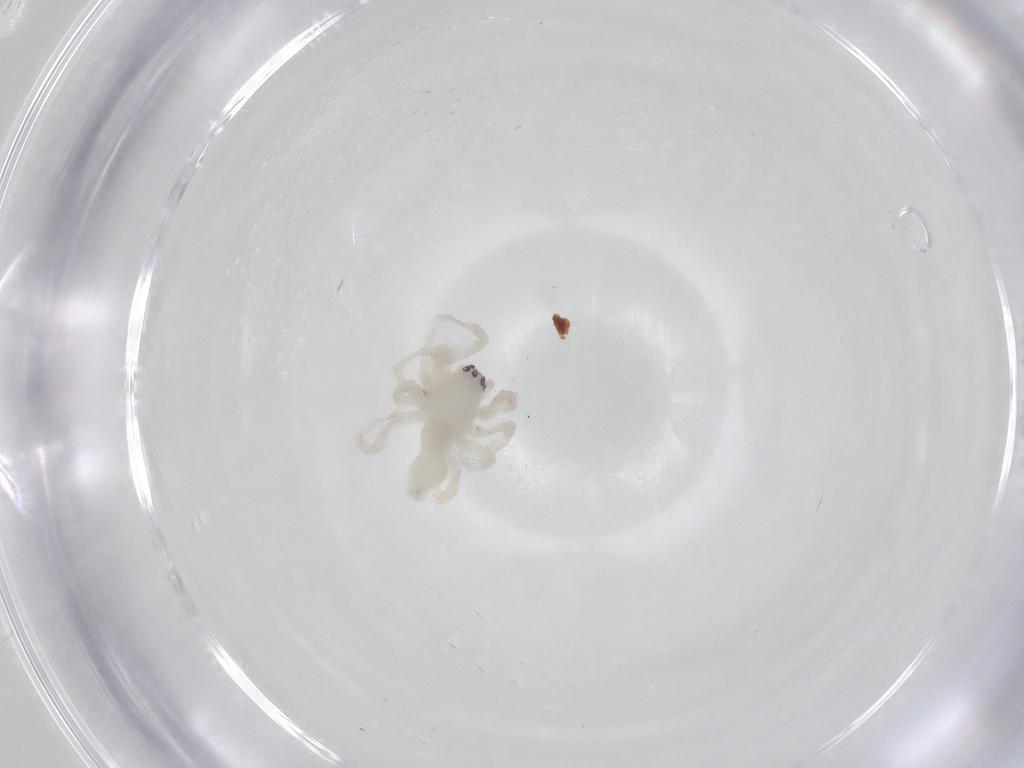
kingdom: Animalia
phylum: Arthropoda
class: Arachnida
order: Araneae
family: Anyphaenidae
